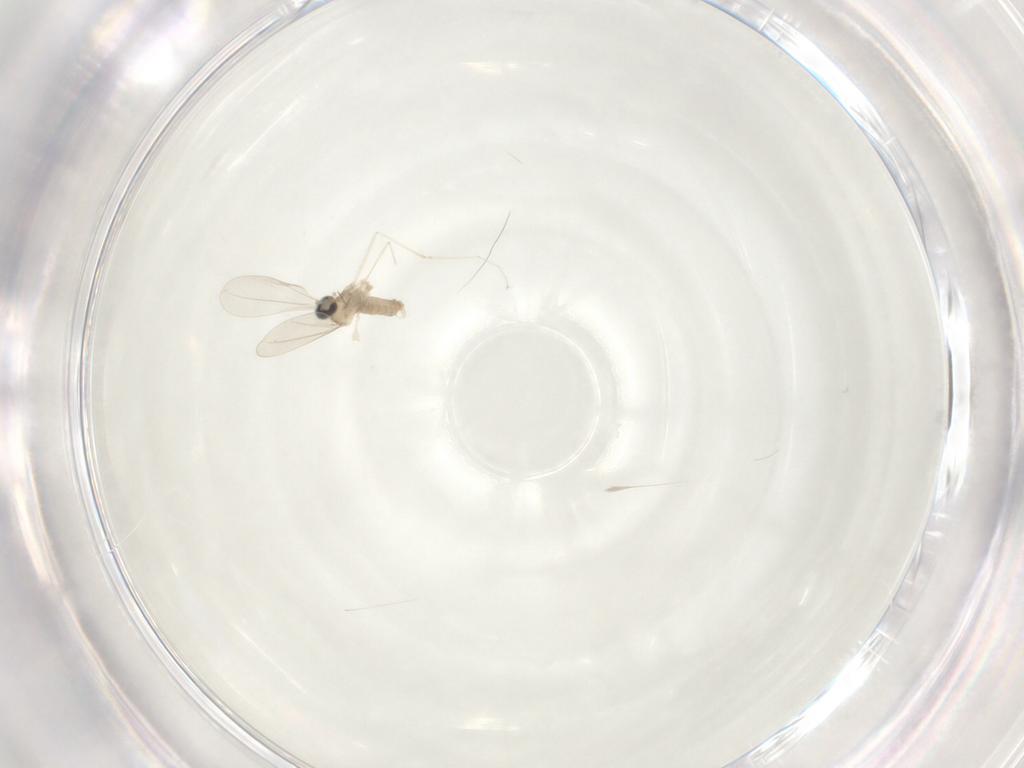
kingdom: Animalia
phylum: Arthropoda
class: Insecta
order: Diptera
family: Cecidomyiidae
